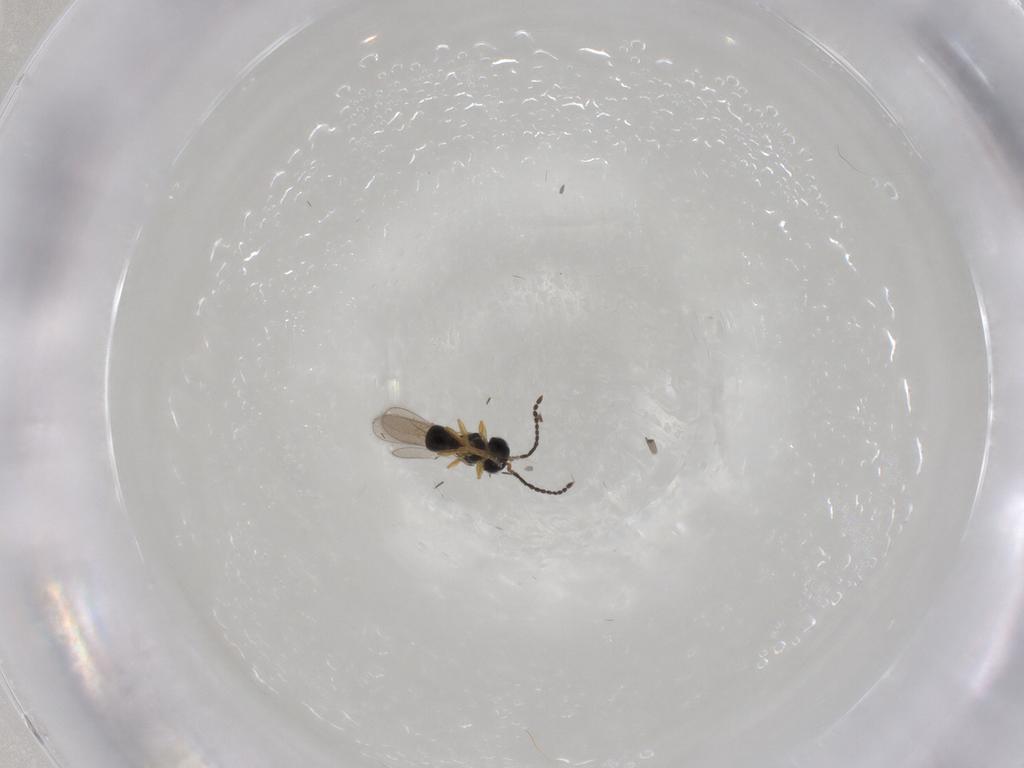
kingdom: Animalia
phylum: Arthropoda
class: Insecta
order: Hymenoptera
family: Scelionidae
